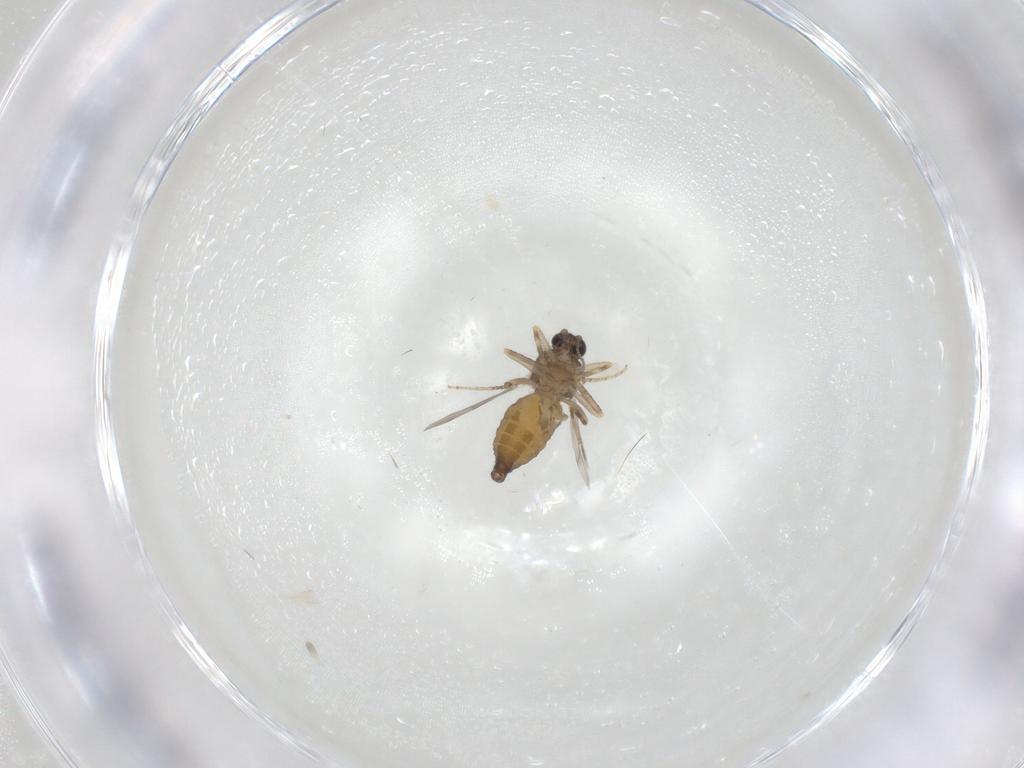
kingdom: Animalia
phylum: Arthropoda
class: Insecta
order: Diptera
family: Ceratopogonidae
